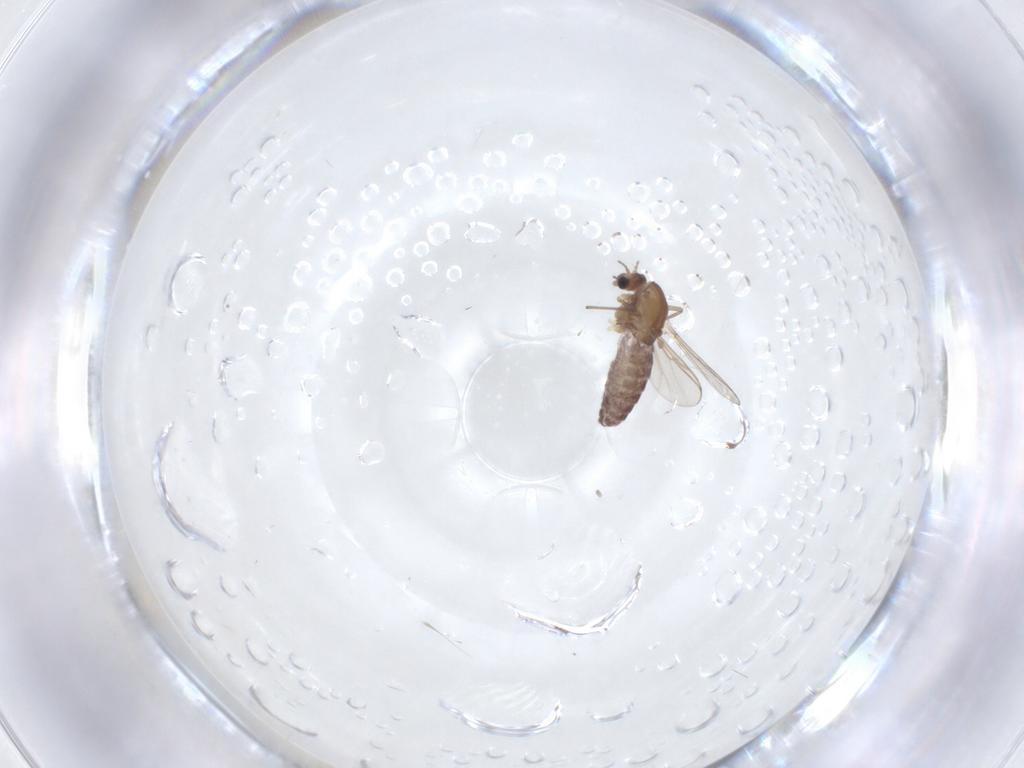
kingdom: Animalia
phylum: Arthropoda
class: Insecta
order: Diptera
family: Chironomidae
